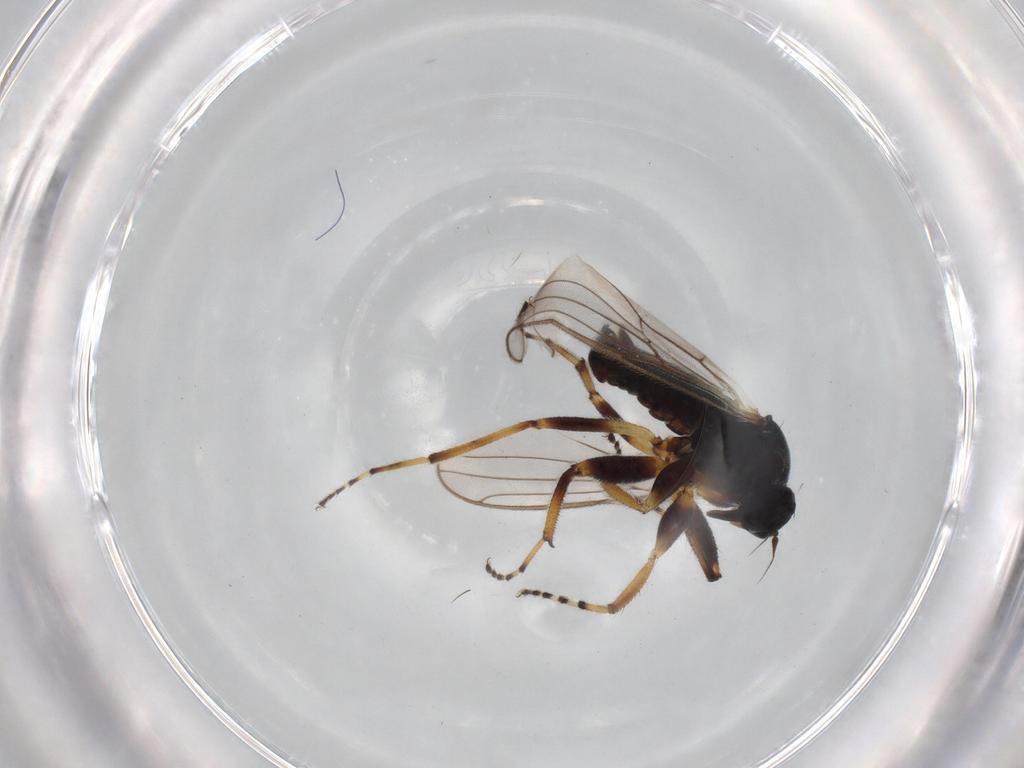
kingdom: Animalia
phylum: Arthropoda
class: Insecta
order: Diptera
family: Hybotidae
